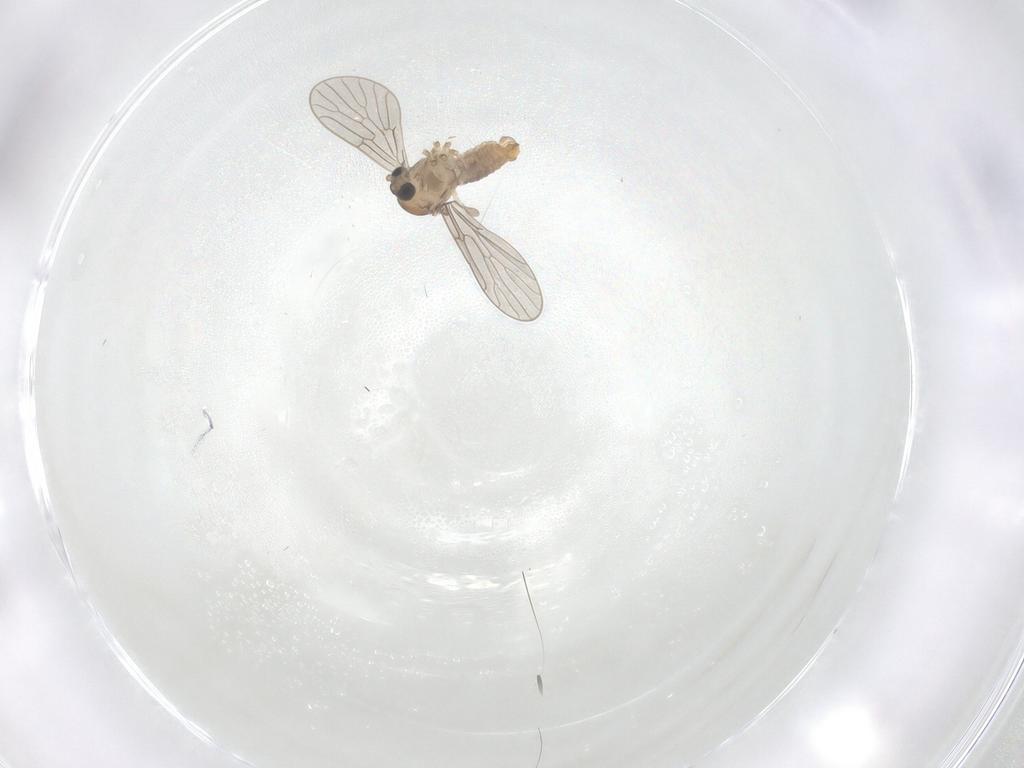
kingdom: Animalia
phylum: Arthropoda
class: Insecta
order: Diptera
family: Psychodidae
